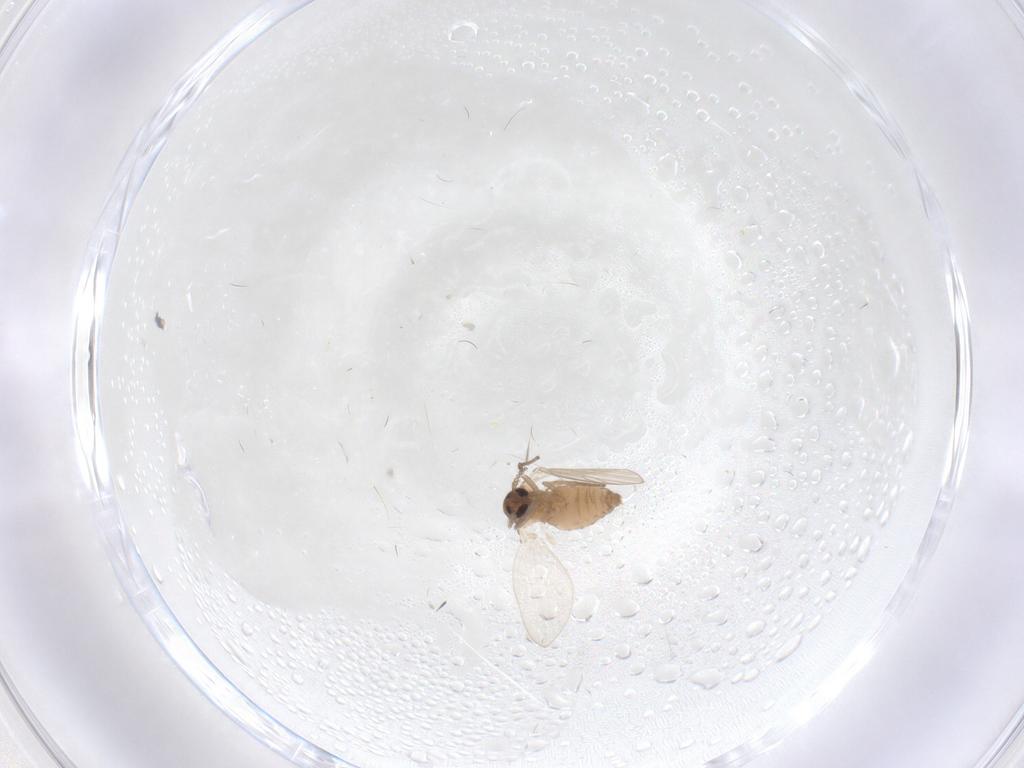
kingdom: Animalia
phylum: Arthropoda
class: Insecta
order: Diptera
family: Psychodidae
